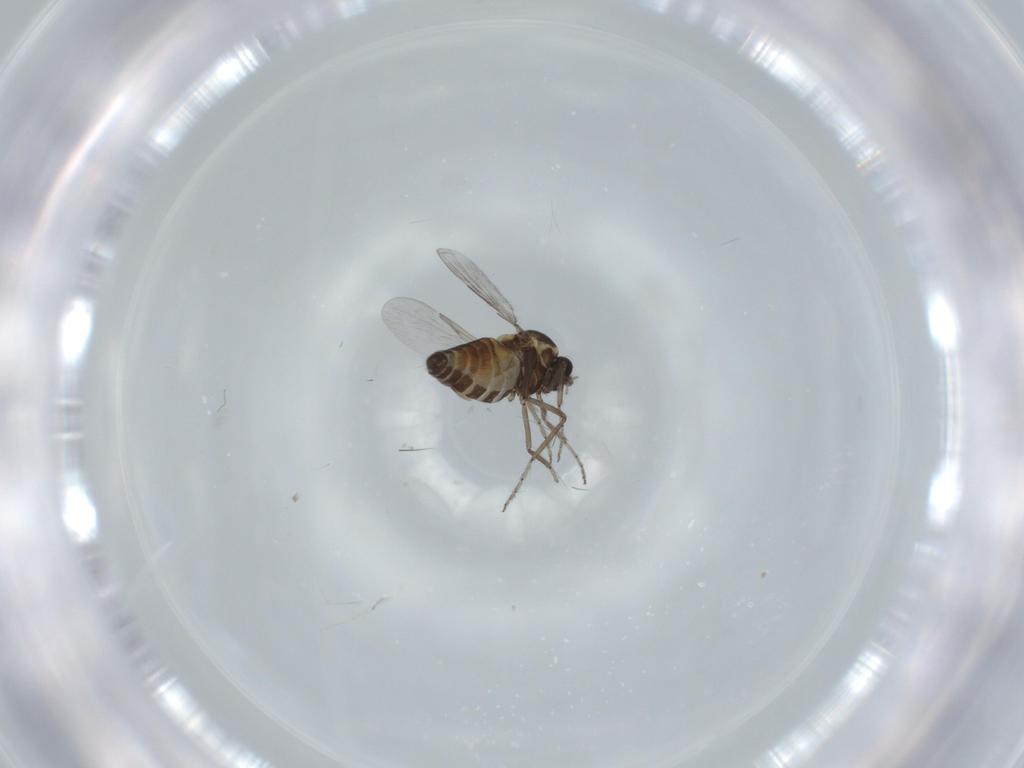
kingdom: Animalia
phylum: Arthropoda
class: Insecta
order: Diptera
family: Ceratopogonidae
